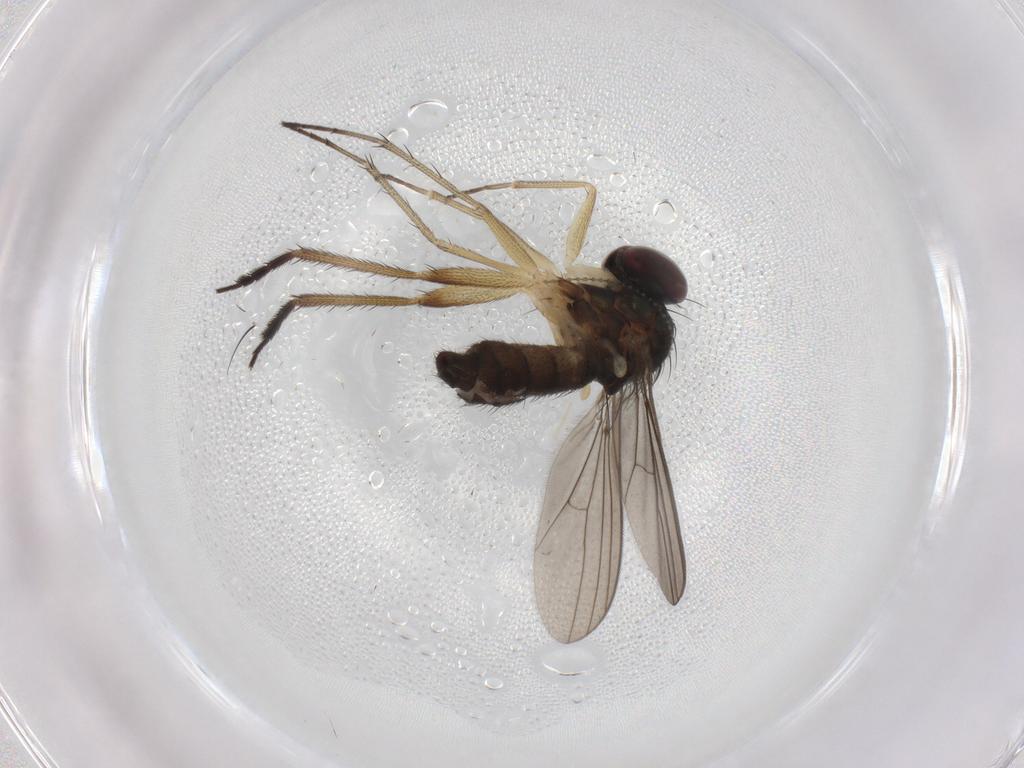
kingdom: Animalia
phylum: Arthropoda
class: Insecta
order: Diptera
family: Dolichopodidae
